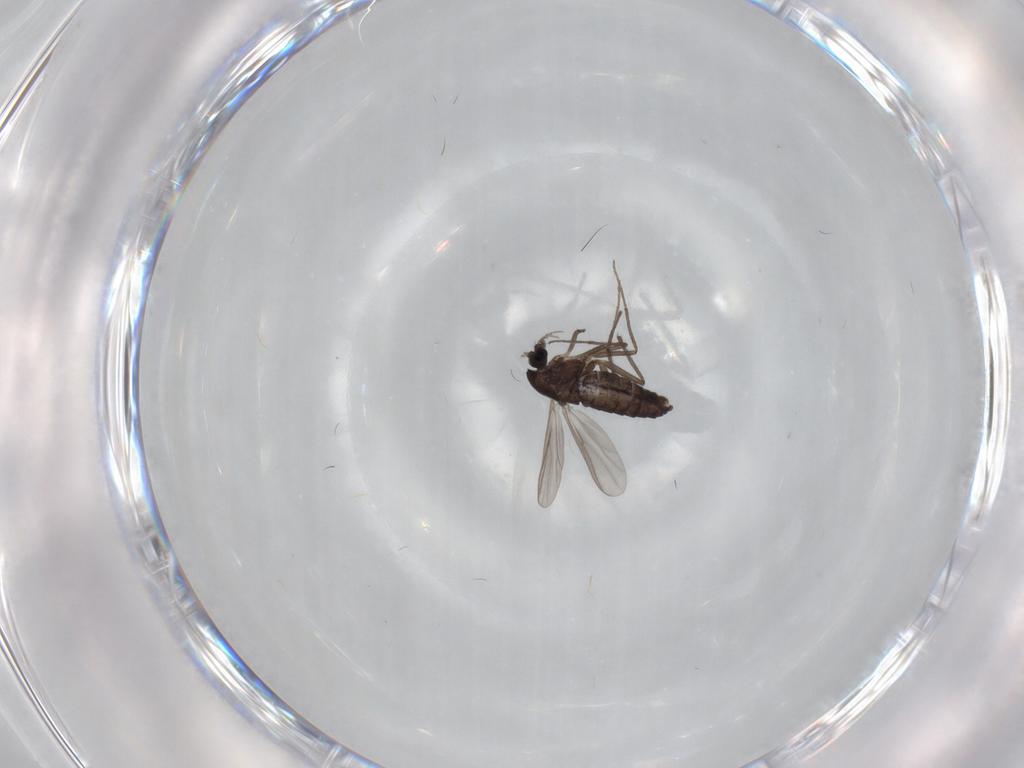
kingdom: Animalia
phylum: Arthropoda
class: Insecta
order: Diptera
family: Chironomidae
